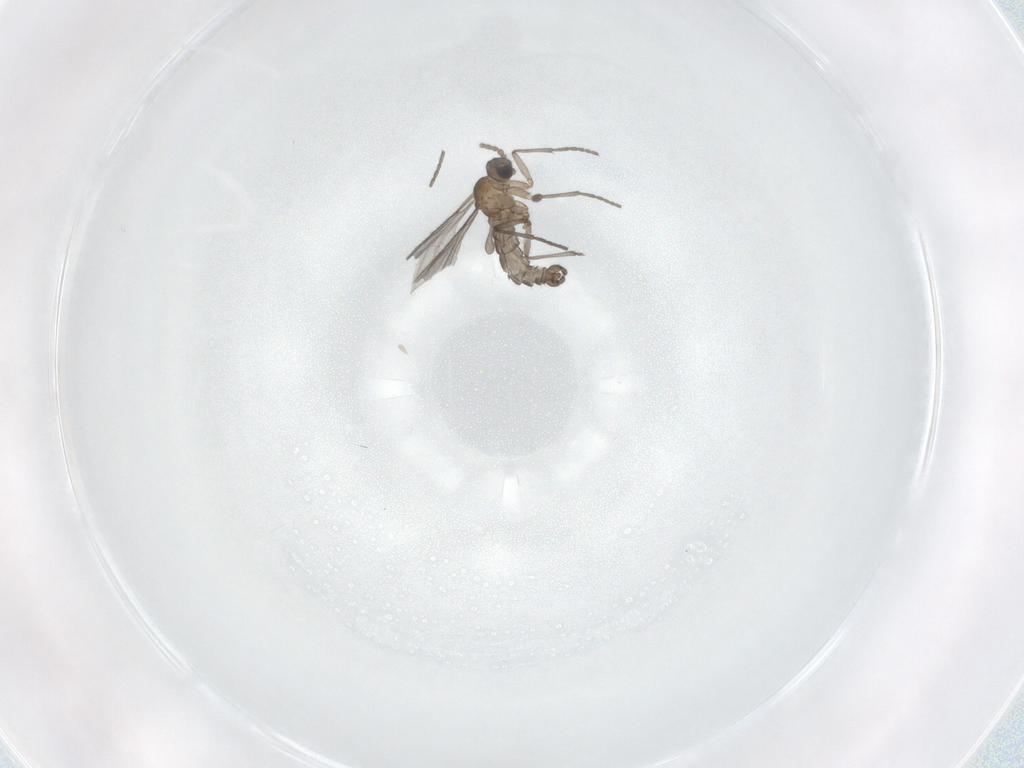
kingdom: Animalia
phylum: Arthropoda
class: Insecta
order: Diptera
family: Sciaridae
